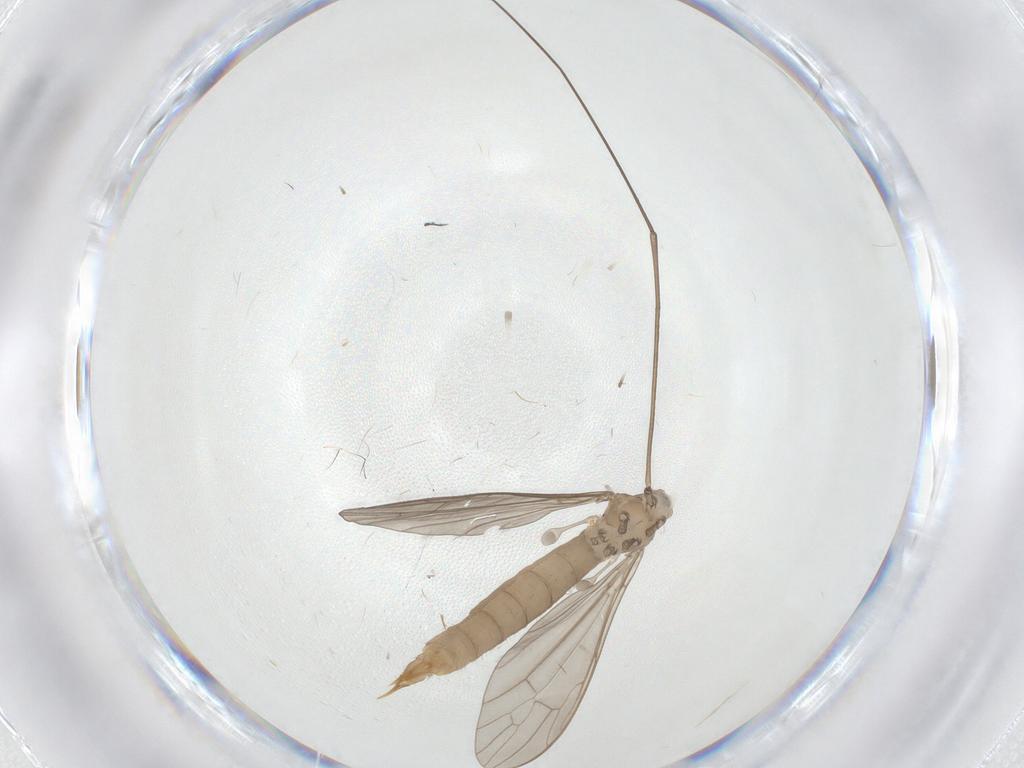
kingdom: Animalia
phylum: Arthropoda
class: Insecta
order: Diptera
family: Limoniidae
